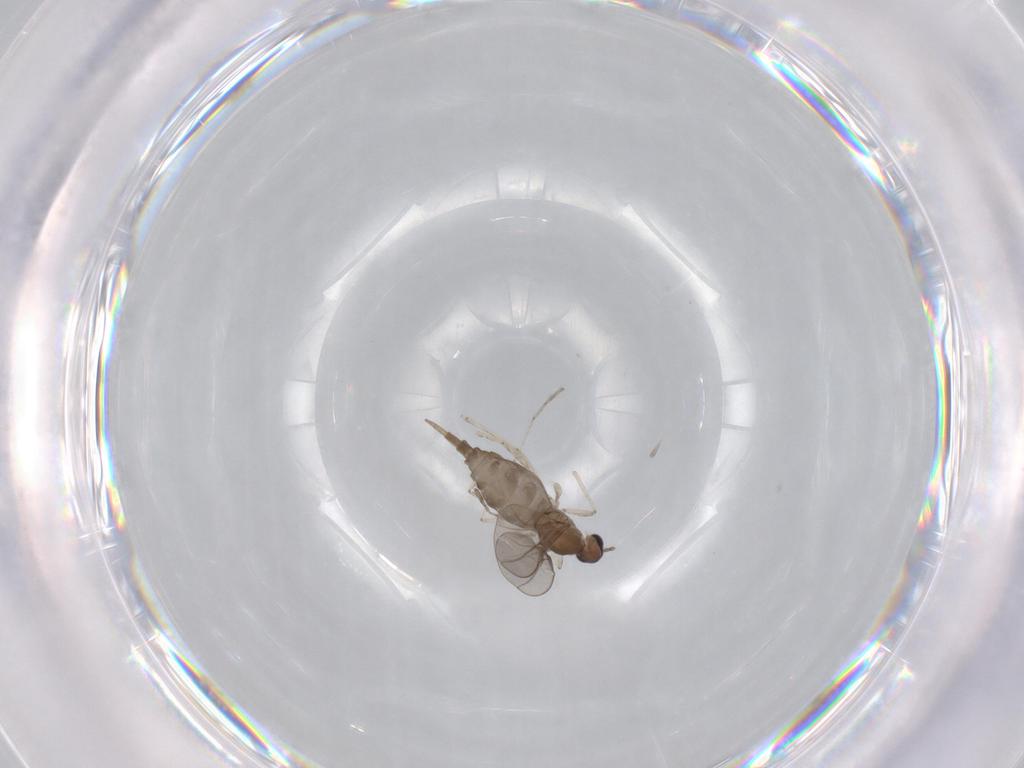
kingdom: Animalia
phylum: Arthropoda
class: Insecta
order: Diptera
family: Cecidomyiidae
